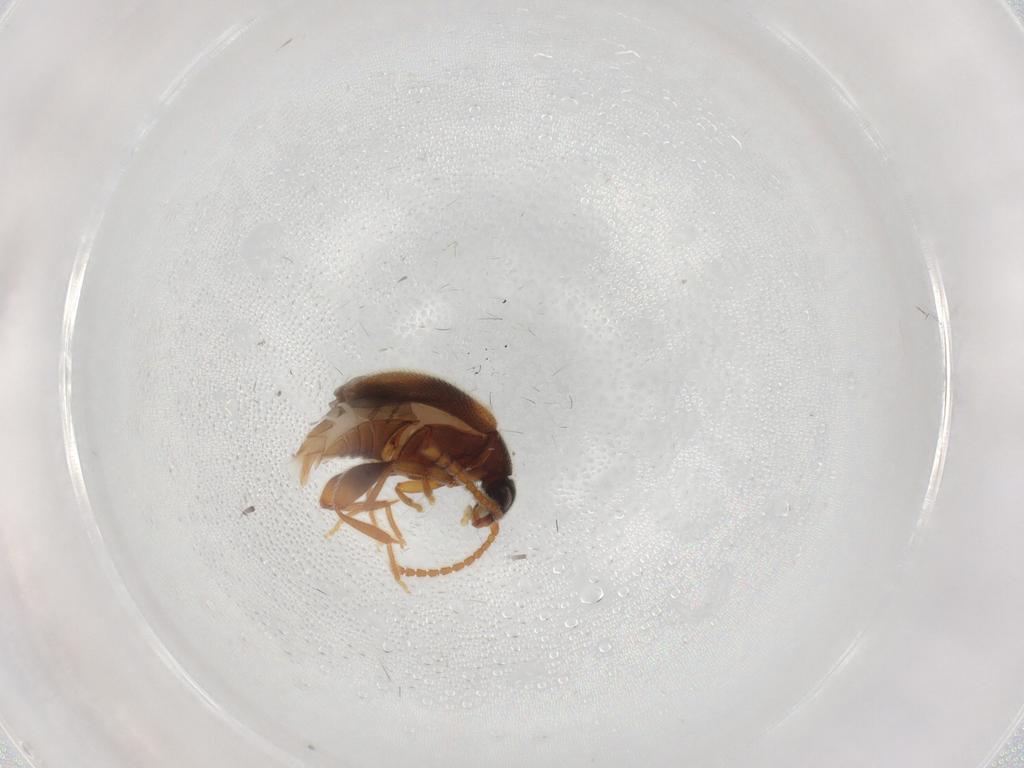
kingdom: Animalia
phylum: Arthropoda
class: Insecta
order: Coleoptera
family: Aderidae
